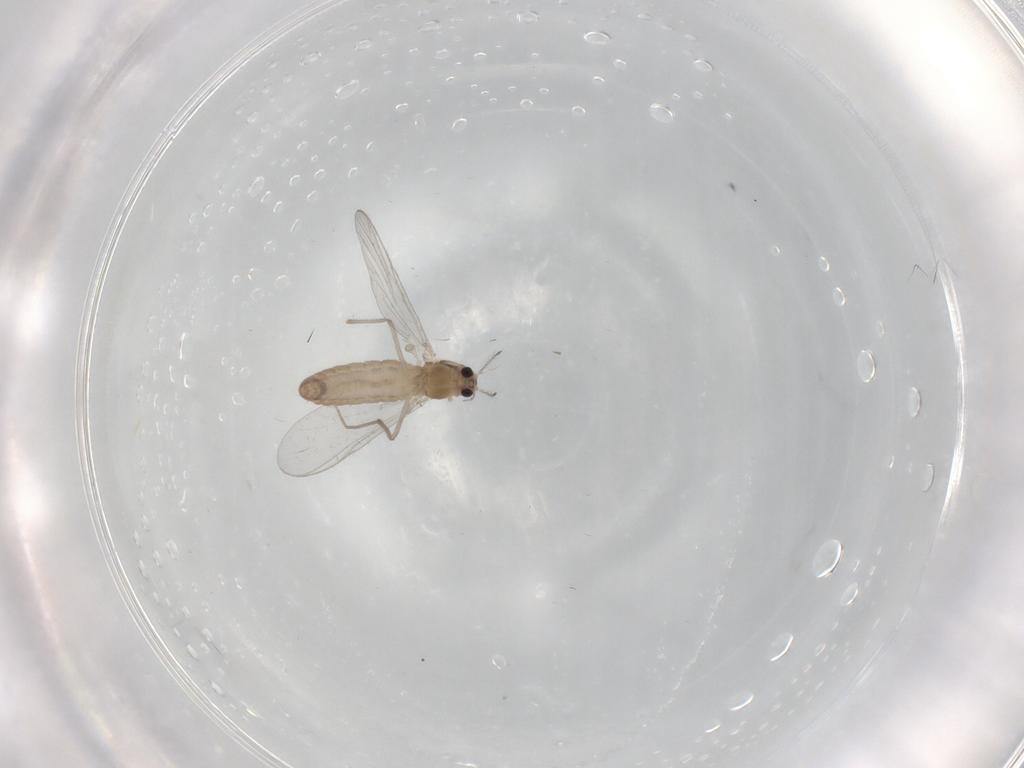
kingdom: Animalia
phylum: Arthropoda
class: Insecta
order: Diptera
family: Chironomidae
